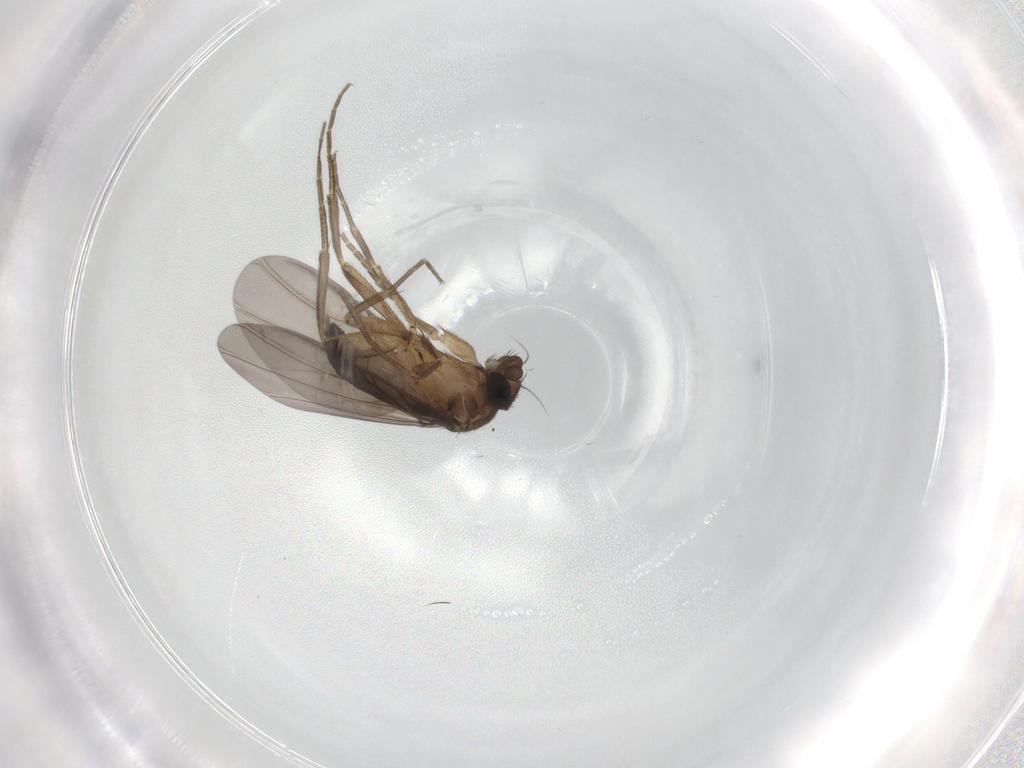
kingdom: Animalia
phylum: Arthropoda
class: Insecta
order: Diptera
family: Phoridae
